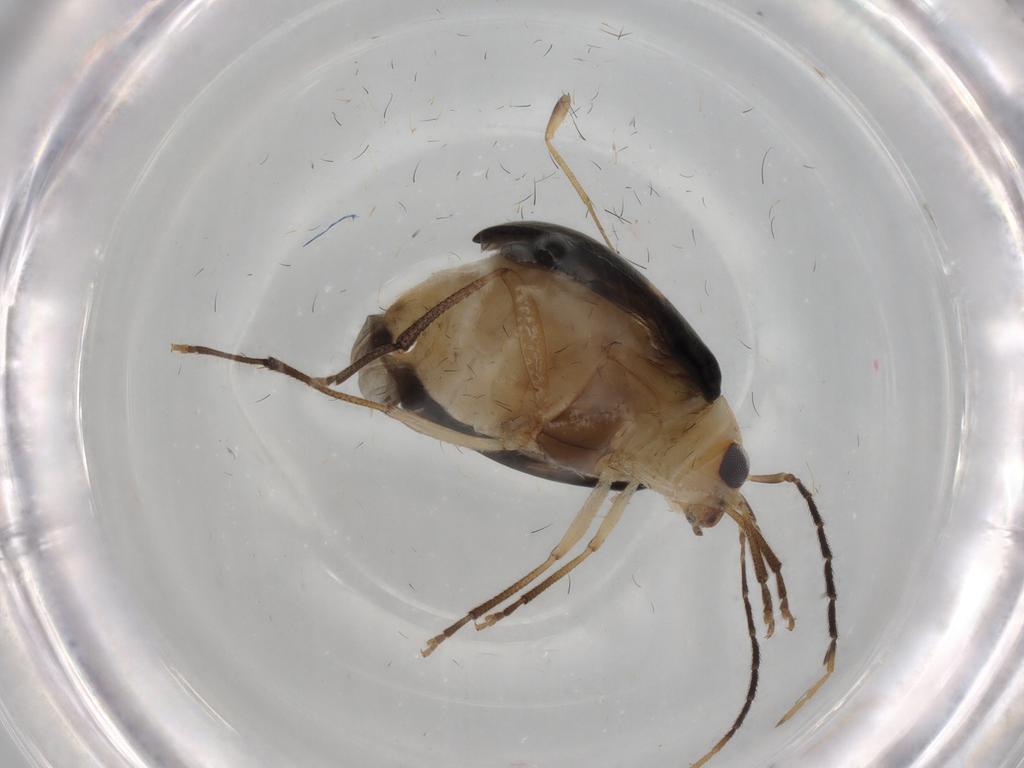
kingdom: Animalia
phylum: Arthropoda
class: Insecta
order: Coleoptera
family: Chrysomelidae
